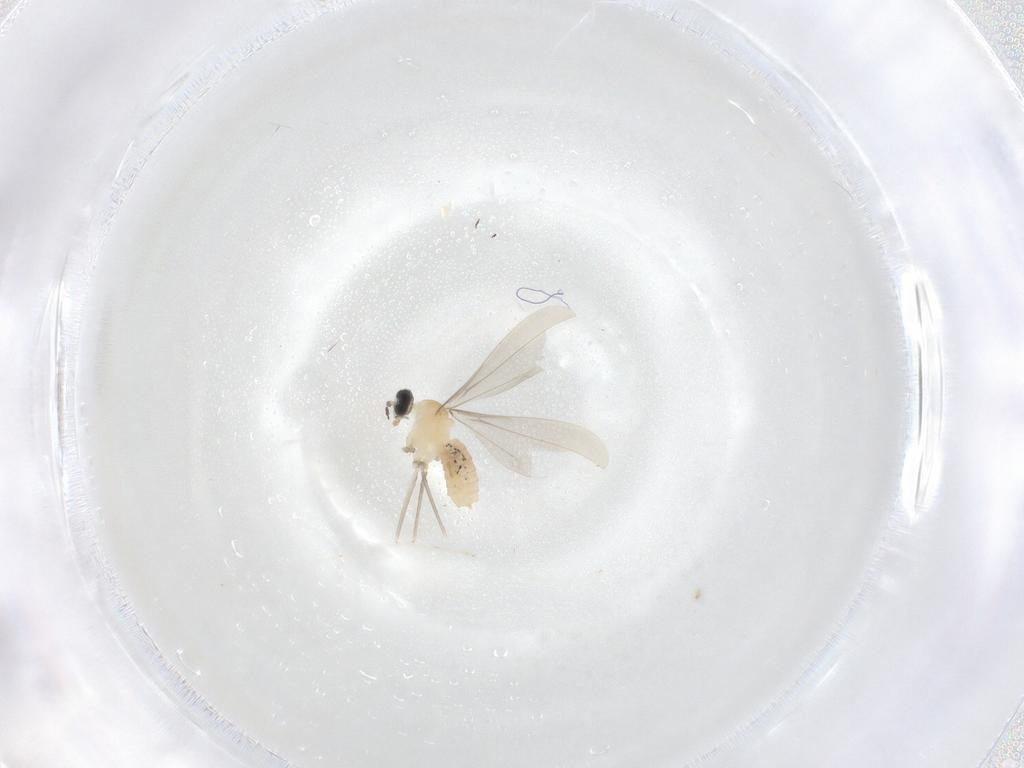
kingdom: Animalia
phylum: Arthropoda
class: Insecta
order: Diptera
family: Cecidomyiidae
